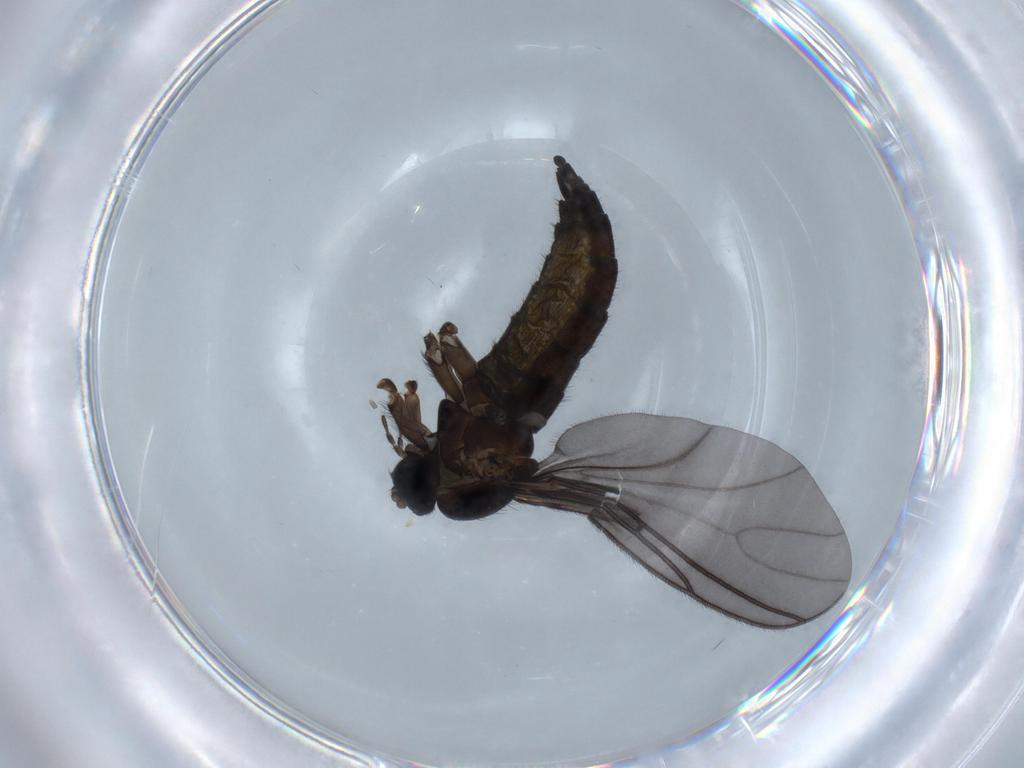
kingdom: Animalia
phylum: Arthropoda
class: Insecta
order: Diptera
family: Sciaridae
